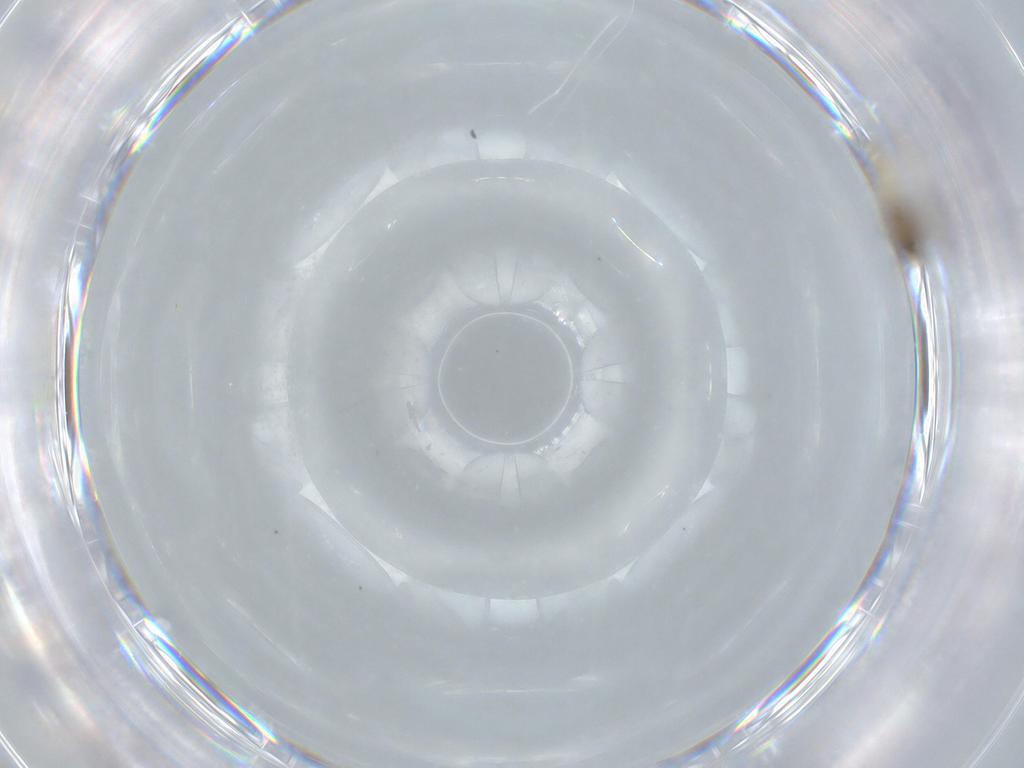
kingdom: Animalia
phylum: Arthropoda
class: Insecta
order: Diptera
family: Cecidomyiidae
